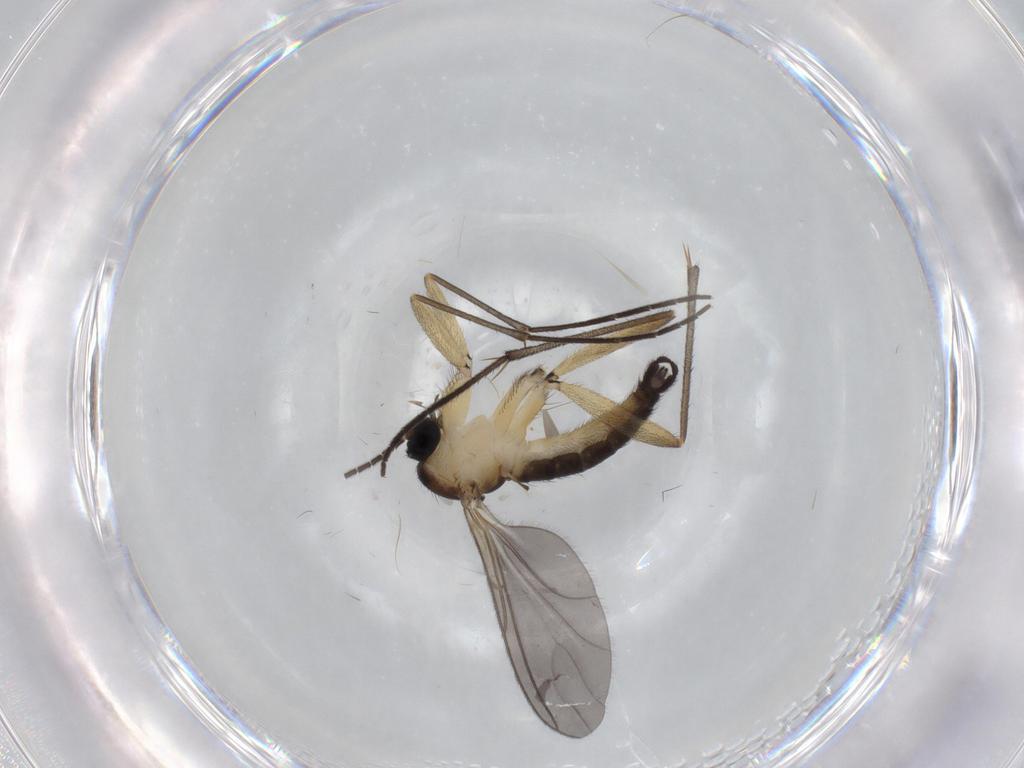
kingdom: Animalia
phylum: Arthropoda
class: Insecta
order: Diptera
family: Sciaridae
